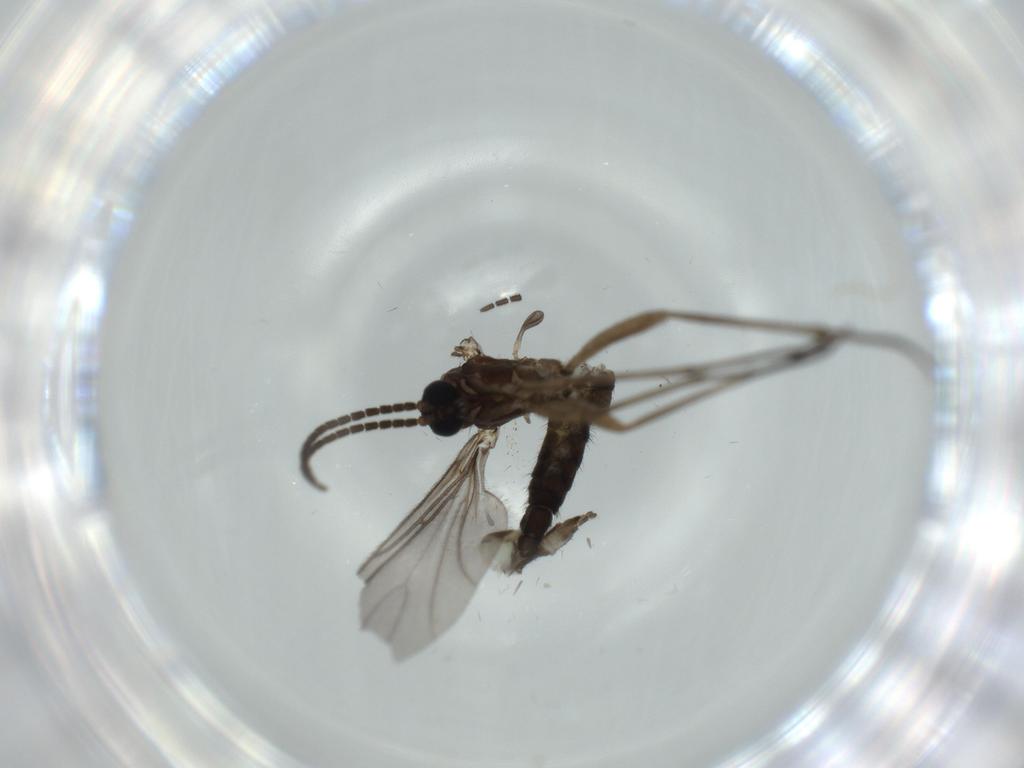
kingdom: Animalia
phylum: Arthropoda
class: Insecta
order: Diptera
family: Sciaridae
